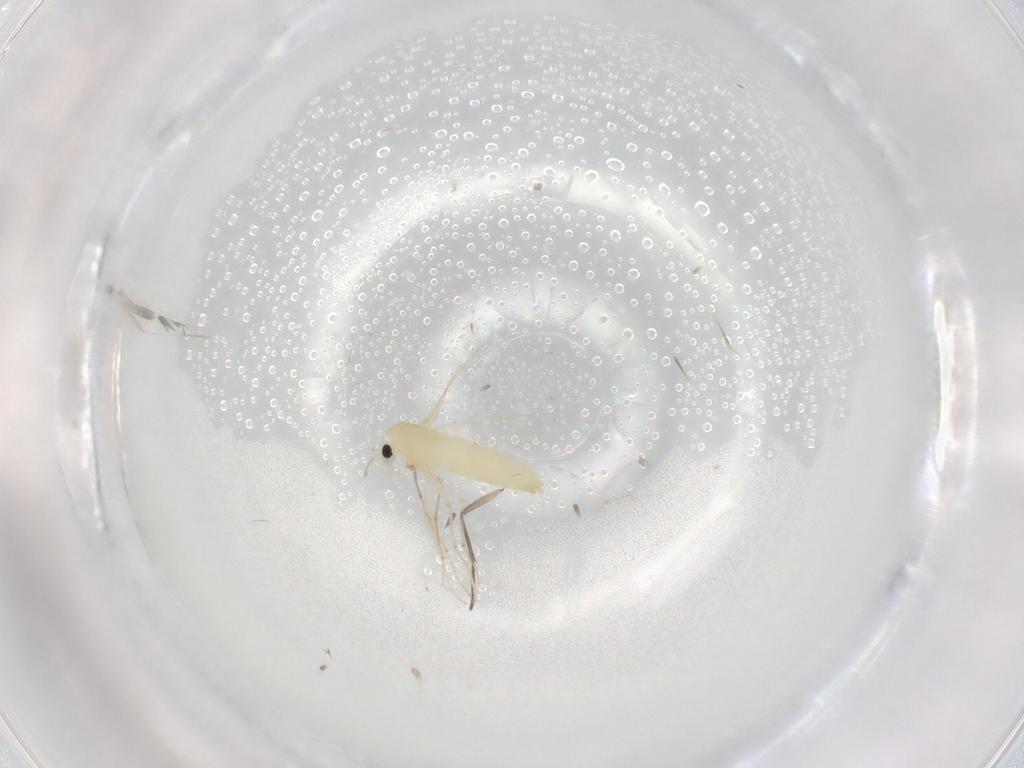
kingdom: Animalia
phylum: Arthropoda
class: Insecta
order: Diptera
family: Chironomidae
